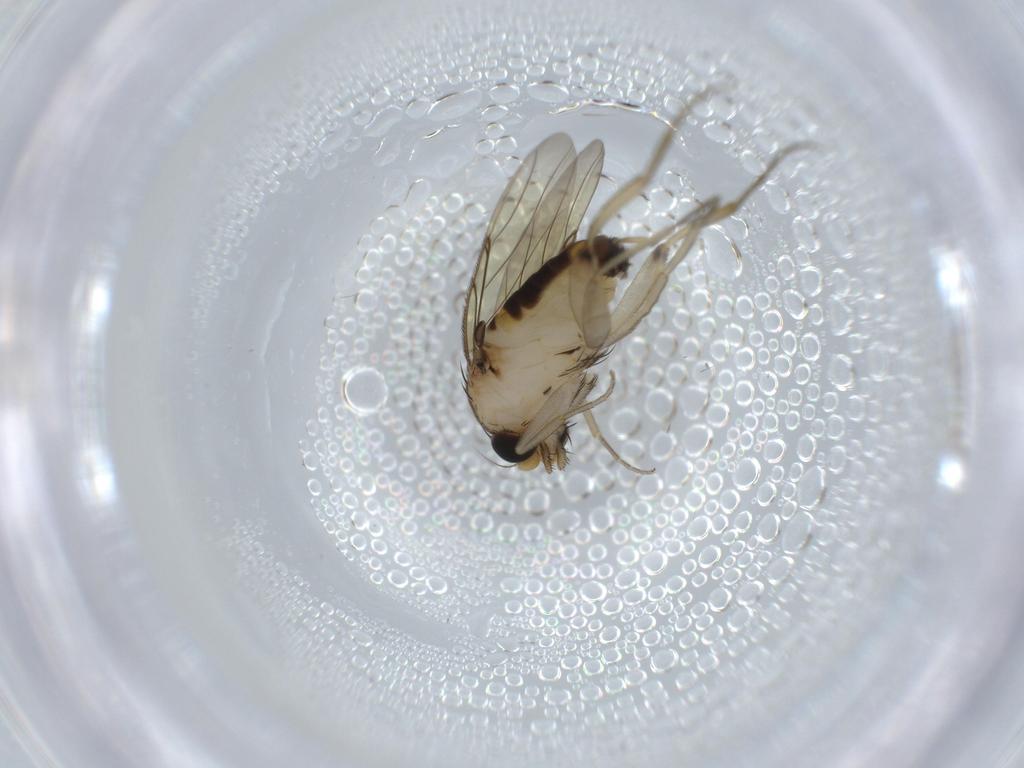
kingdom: Animalia
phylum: Arthropoda
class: Insecta
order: Diptera
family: Phoridae
